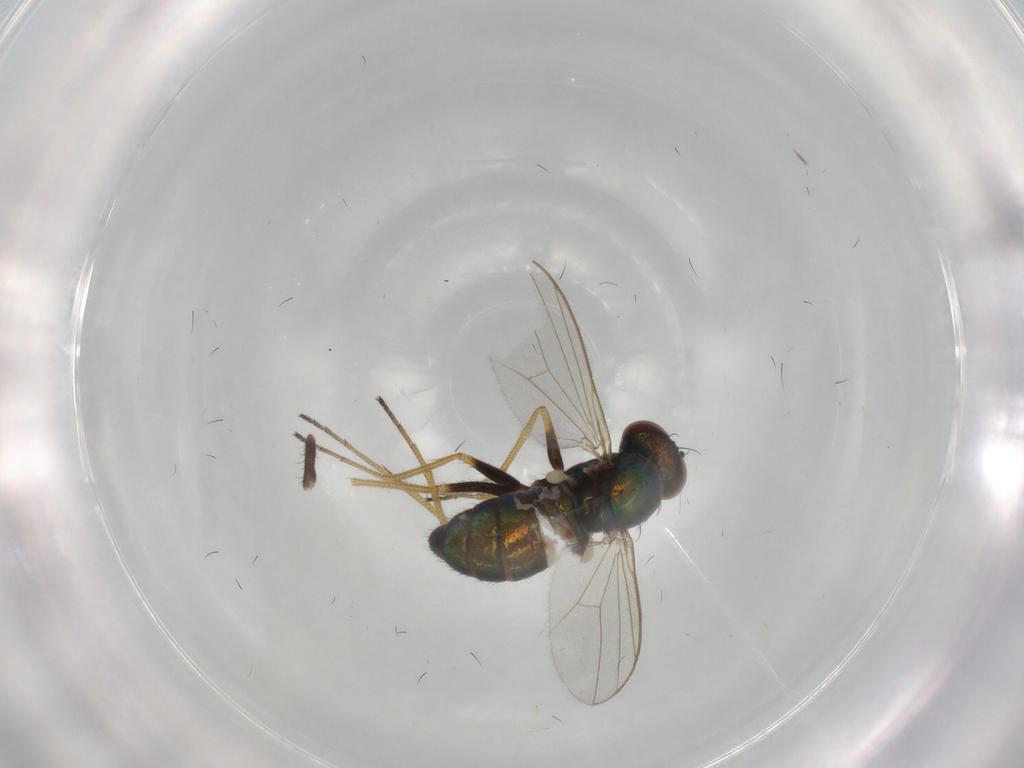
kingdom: Animalia
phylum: Arthropoda
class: Insecta
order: Diptera
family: Dolichopodidae
